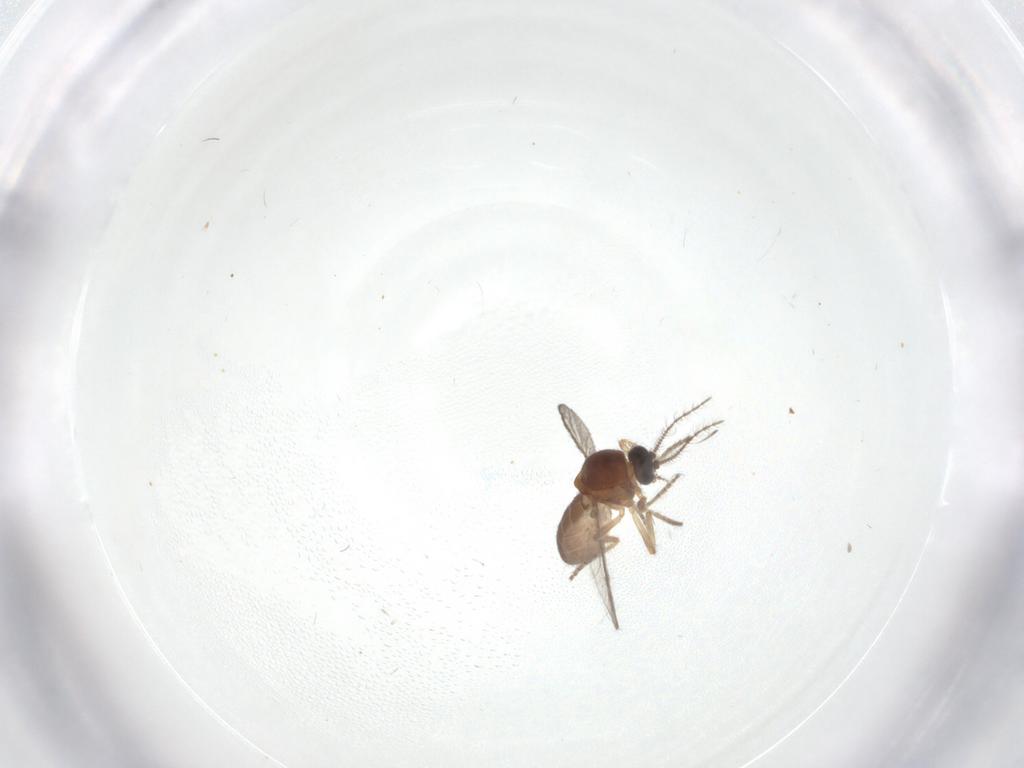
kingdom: Animalia
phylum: Arthropoda
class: Insecta
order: Diptera
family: Ceratopogonidae
